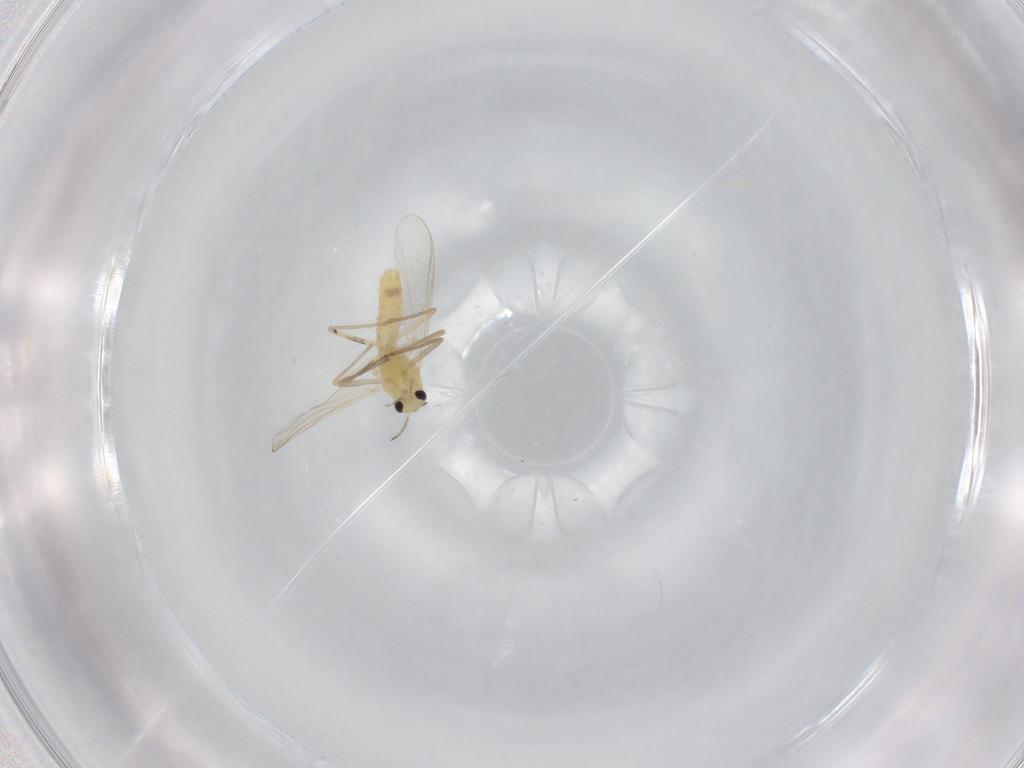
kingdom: Animalia
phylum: Arthropoda
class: Insecta
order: Diptera
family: Chironomidae
